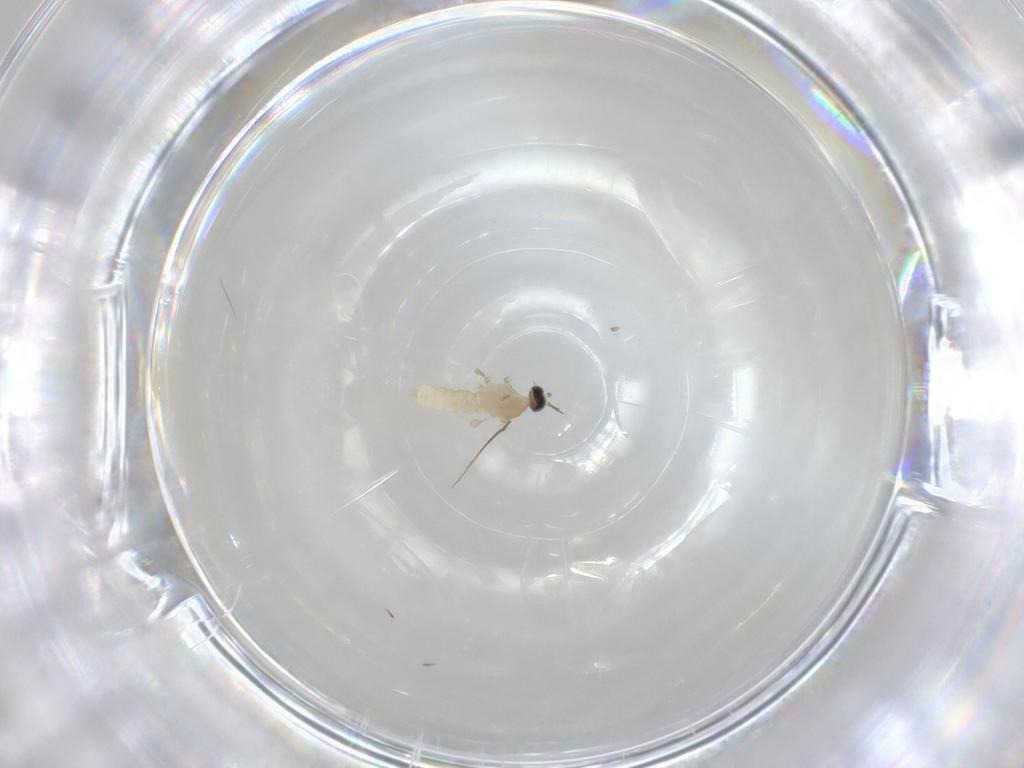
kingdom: Animalia
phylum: Arthropoda
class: Insecta
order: Diptera
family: Cecidomyiidae
